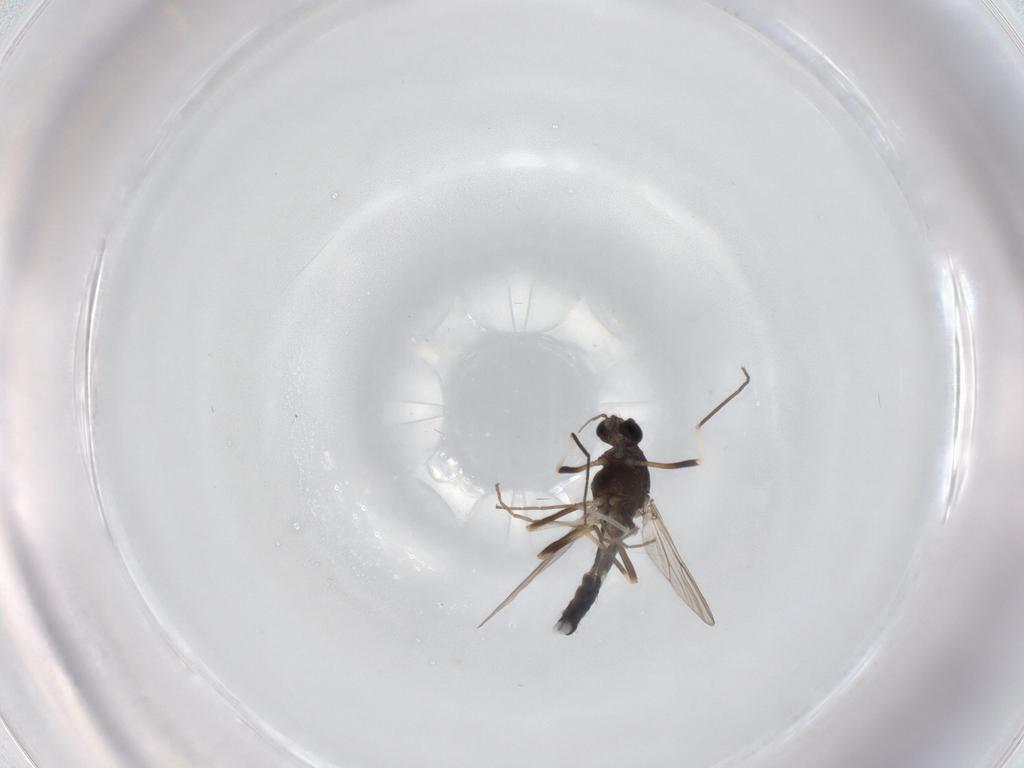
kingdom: Animalia
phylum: Arthropoda
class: Insecta
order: Diptera
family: Chironomidae
